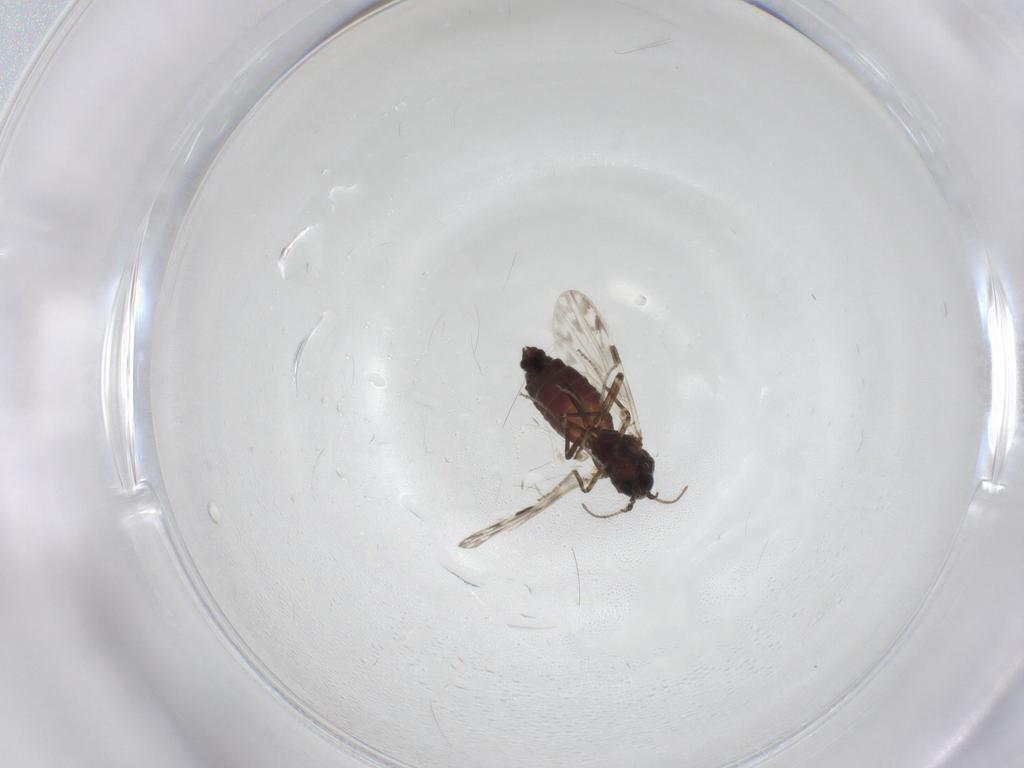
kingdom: Animalia
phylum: Arthropoda
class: Insecta
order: Diptera
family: Ceratopogonidae
